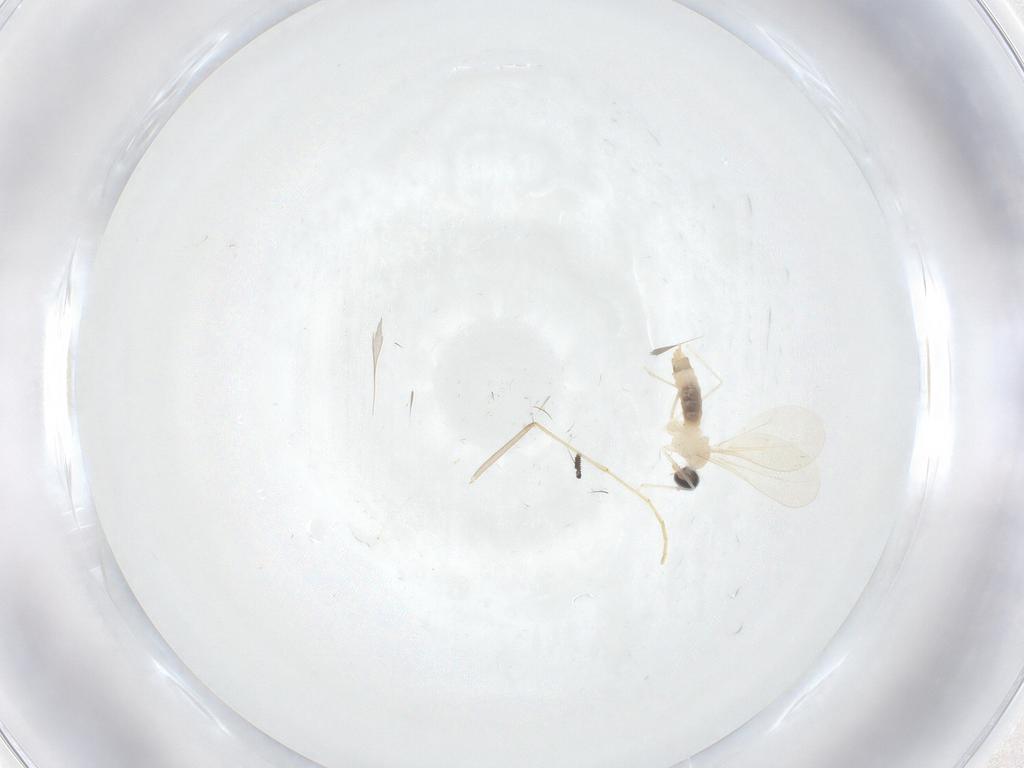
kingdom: Animalia
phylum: Arthropoda
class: Insecta
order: Diptera
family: Cecidomyiidae
